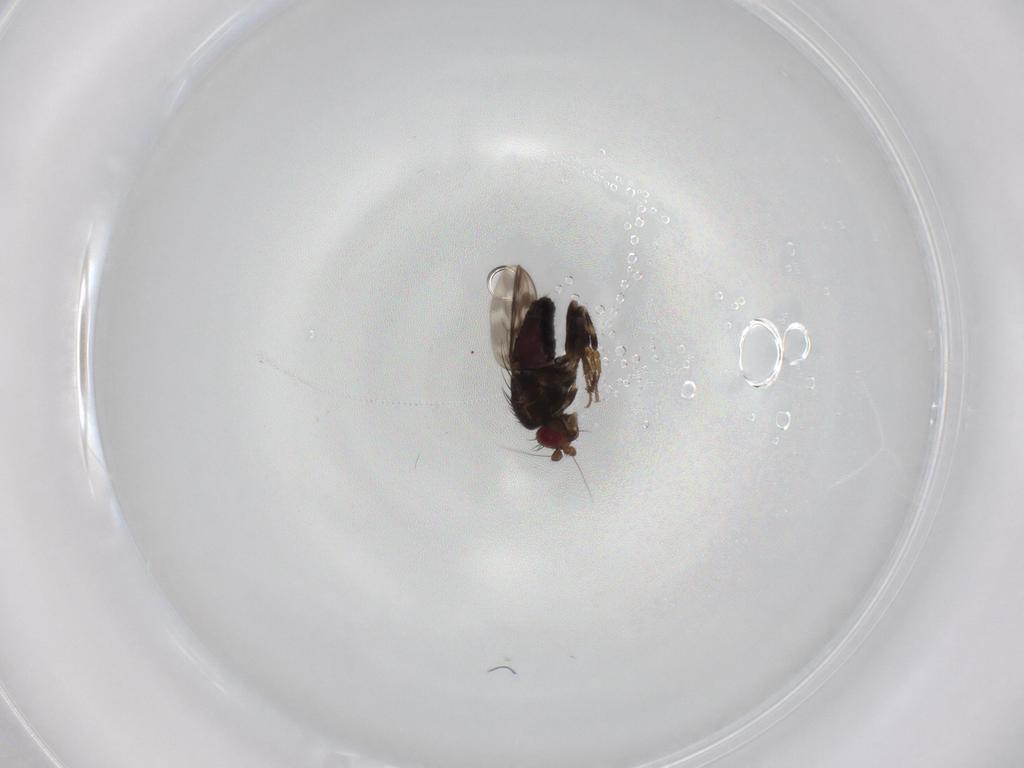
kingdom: Animalia
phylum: Arthropoda
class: Insecta
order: Diptera
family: Sphaeroceridae
